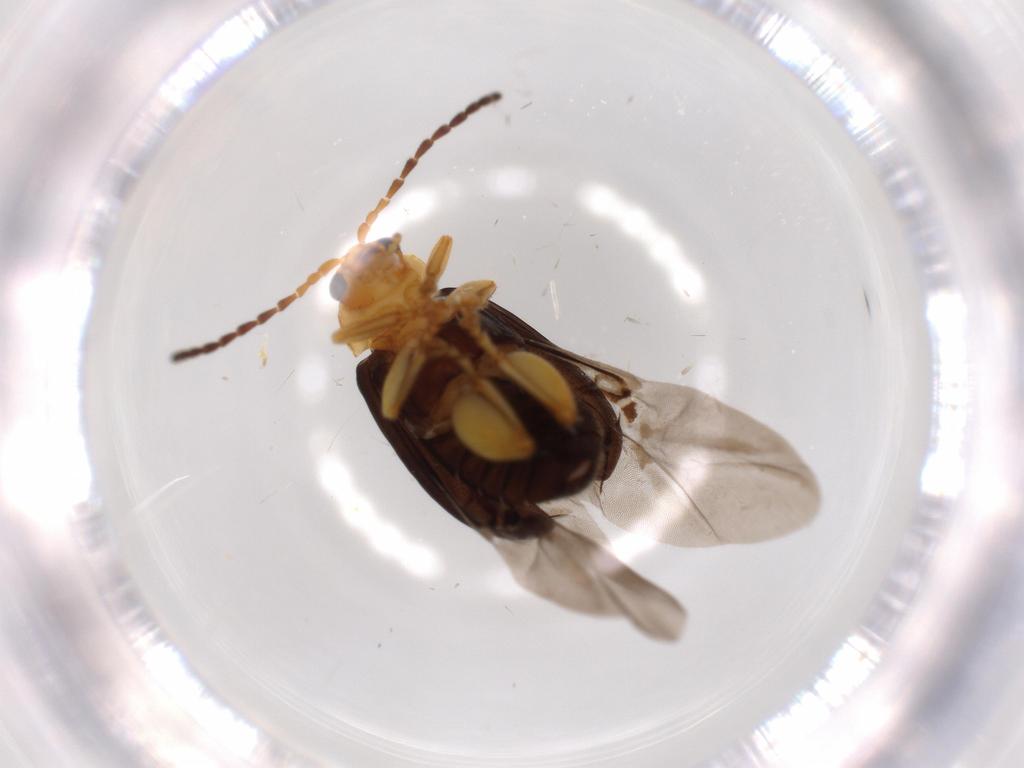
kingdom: Animalia
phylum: Arthropoda
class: Insecta
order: Coleoptera
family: Chrysomelidae
